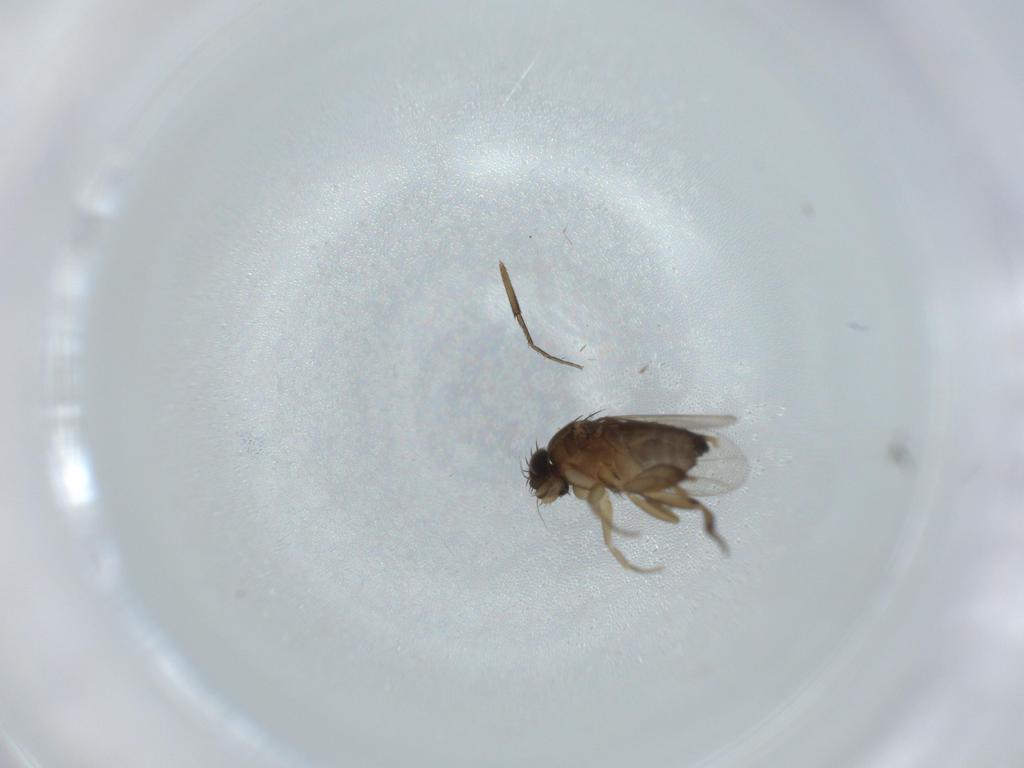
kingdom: Animalia
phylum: Arthropoda
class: Insecta
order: Diptera
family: Phoridae
